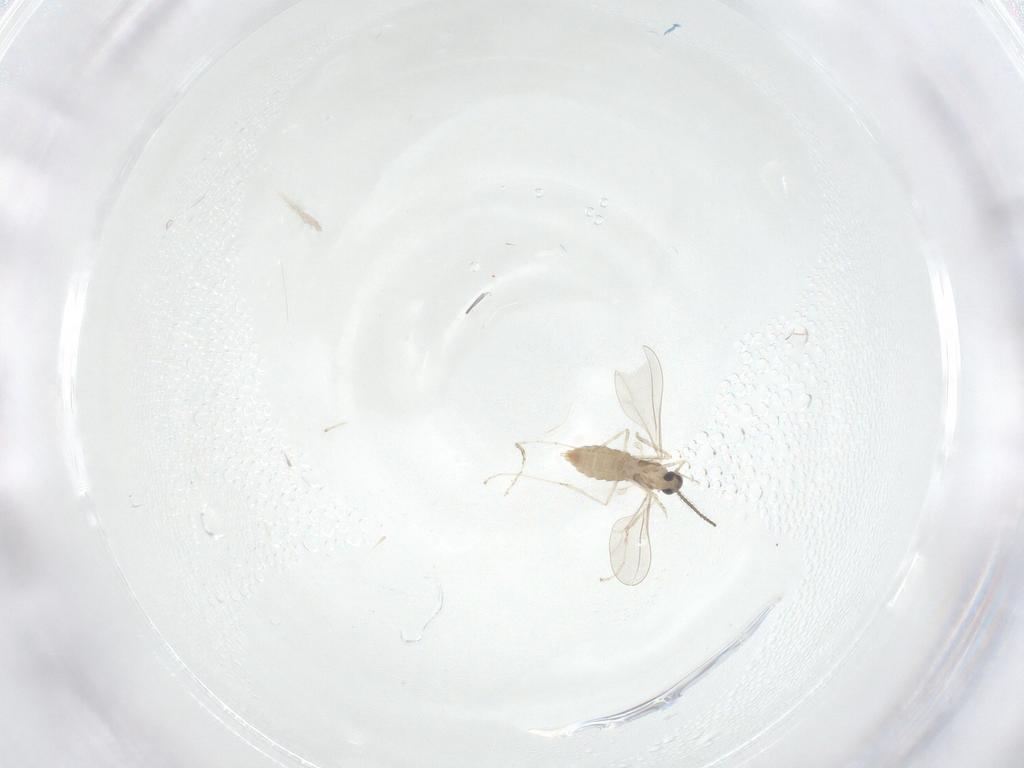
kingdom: Animalia
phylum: Arthropoda
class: Insecta
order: Diptera
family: Cecidomyiidae
